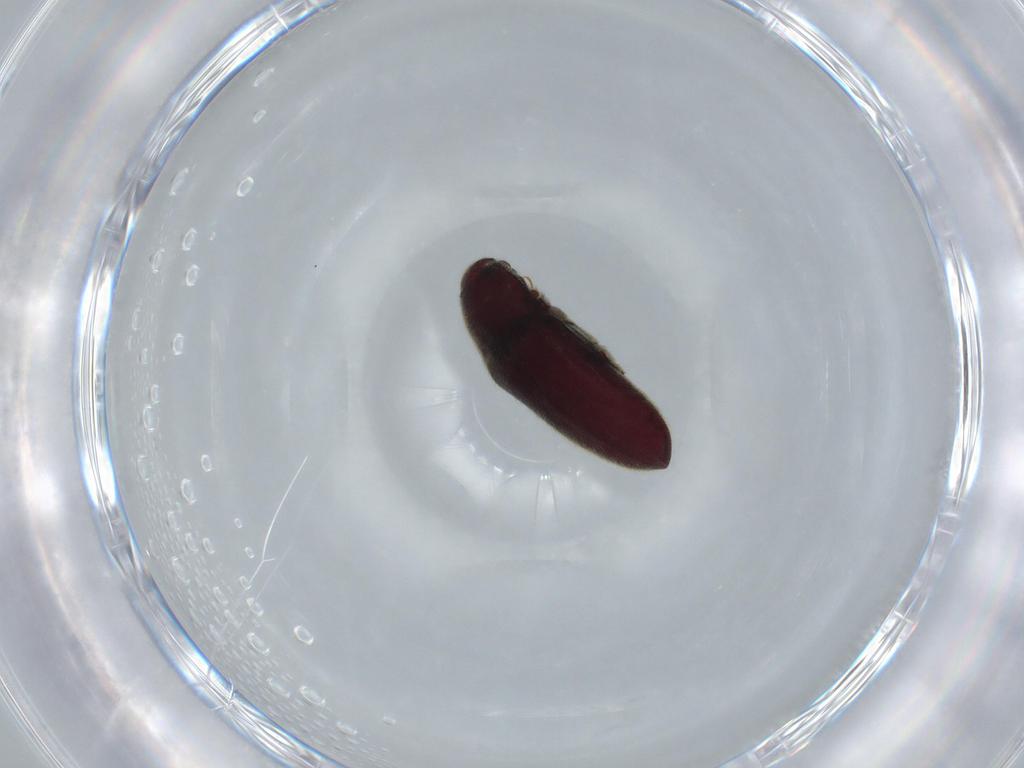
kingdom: Animalia
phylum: Arthropoda
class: Insecta
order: Coleoptera
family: Throscidae
